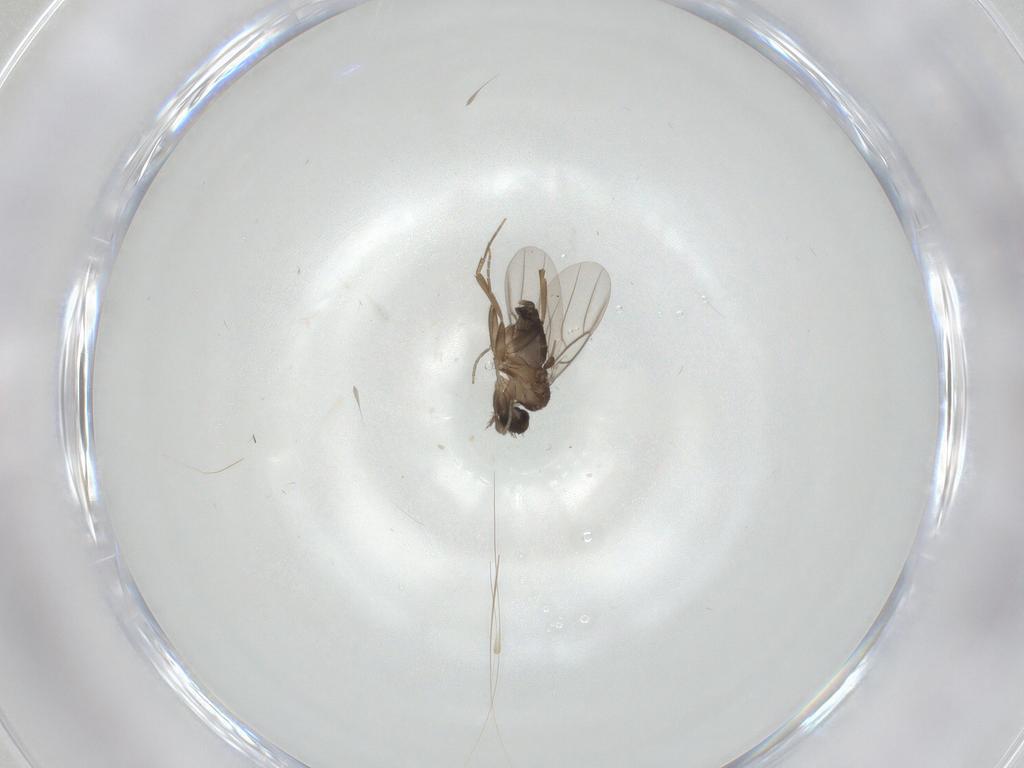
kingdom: Animalia
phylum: Arthropoda
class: Insecta
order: Diptera
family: Phoridae
